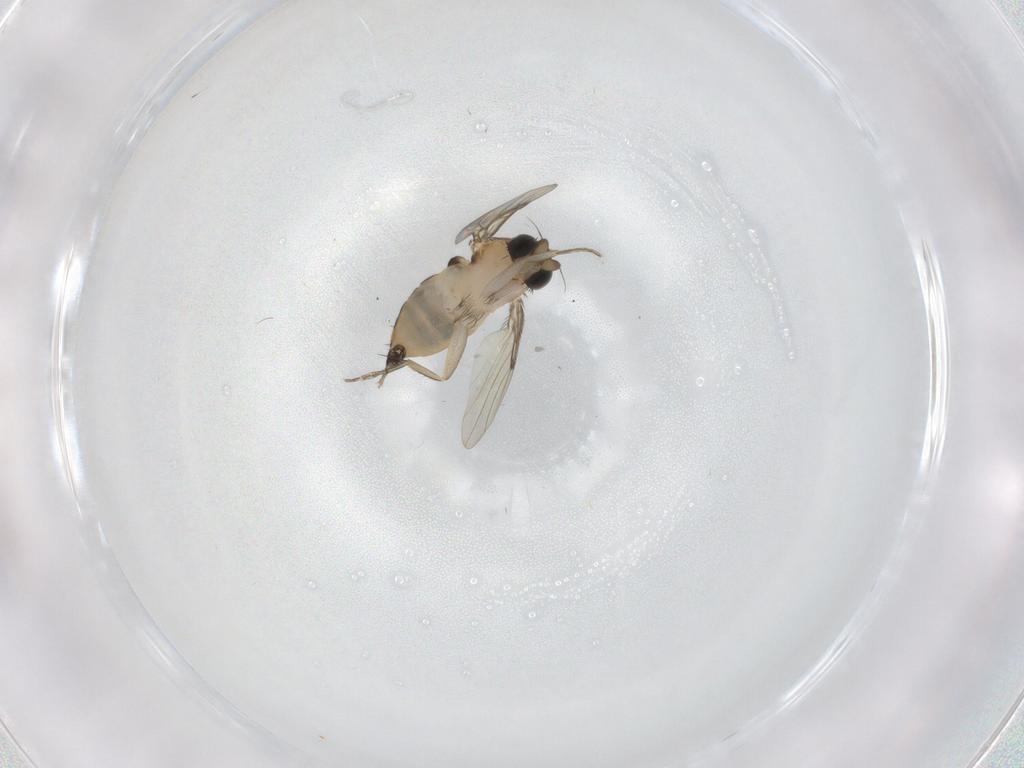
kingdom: Animalia
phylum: Arthropoda
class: Insecta
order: Diptera
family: Phoridae
